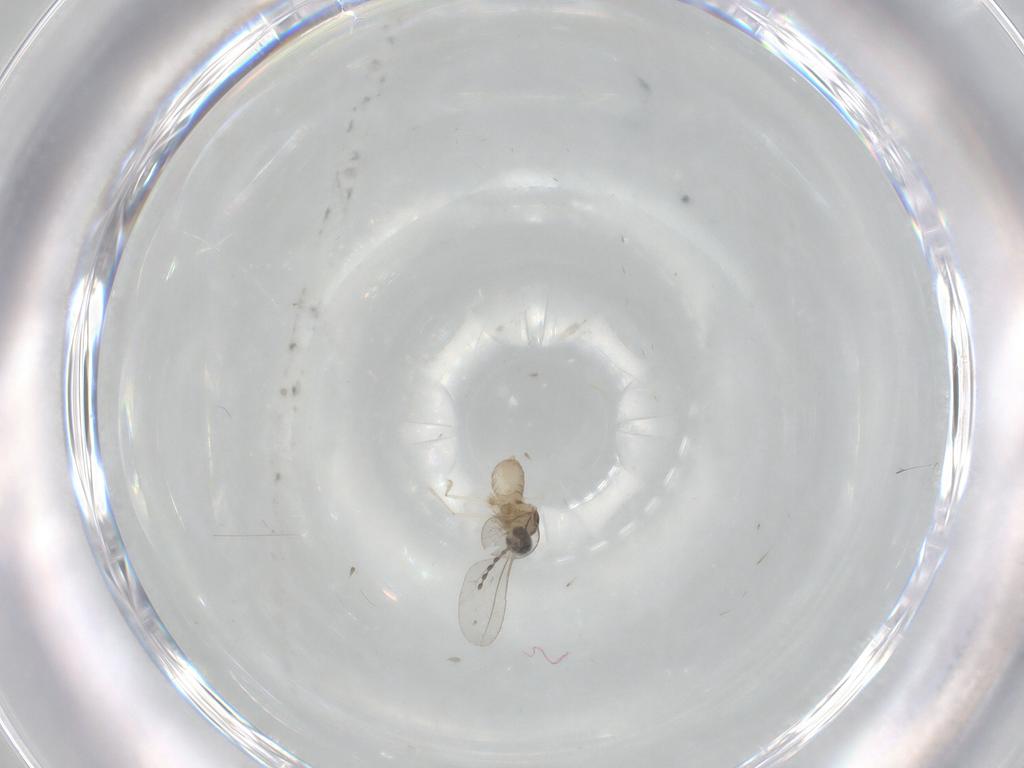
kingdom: Animalia
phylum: Arthropoda
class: Insecta
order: Diptera
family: Cecidomyiidae
